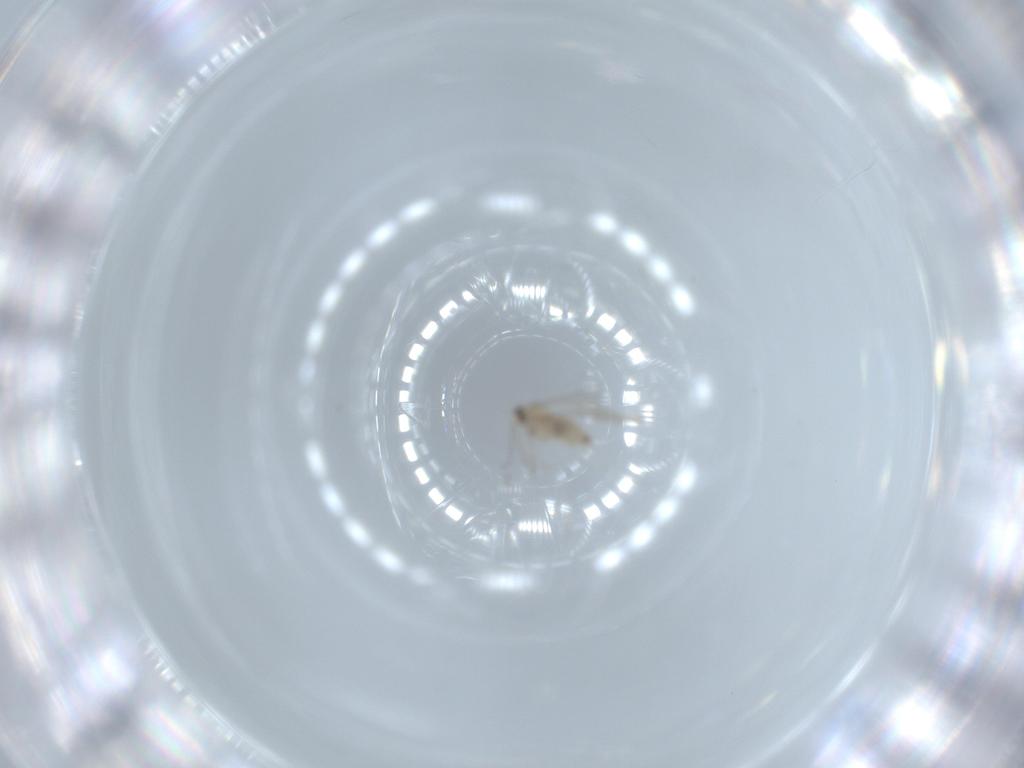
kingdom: Animalia
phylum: Arthropoda
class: Insecta
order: Diptera
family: Cecidomyiidae
